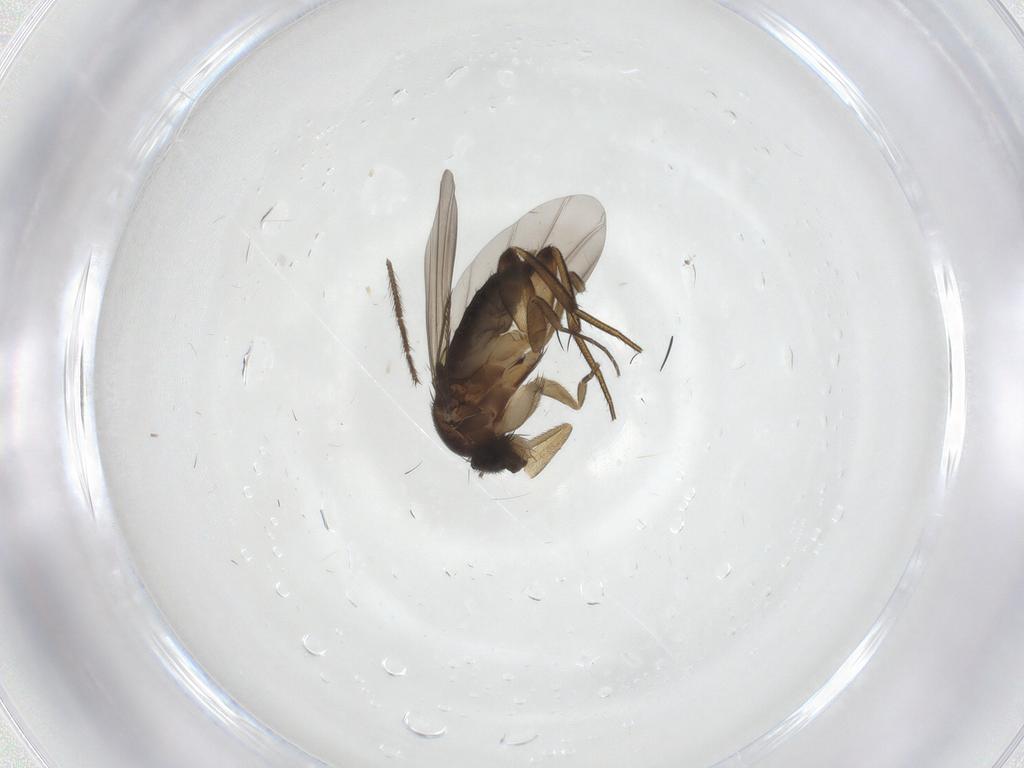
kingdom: Animalia
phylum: Arthropoda
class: Insecta
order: Diptera
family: Phoridae
